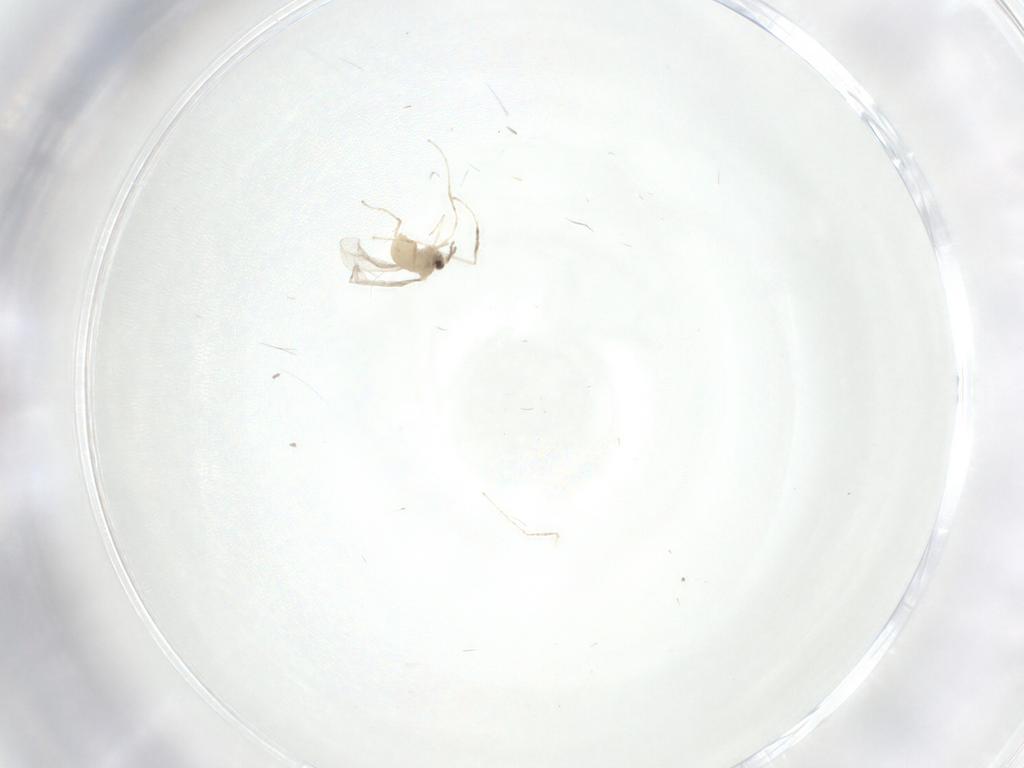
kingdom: Animalia
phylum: Arthropoda
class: Insecta
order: Diptera
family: Cecidomyiidae
